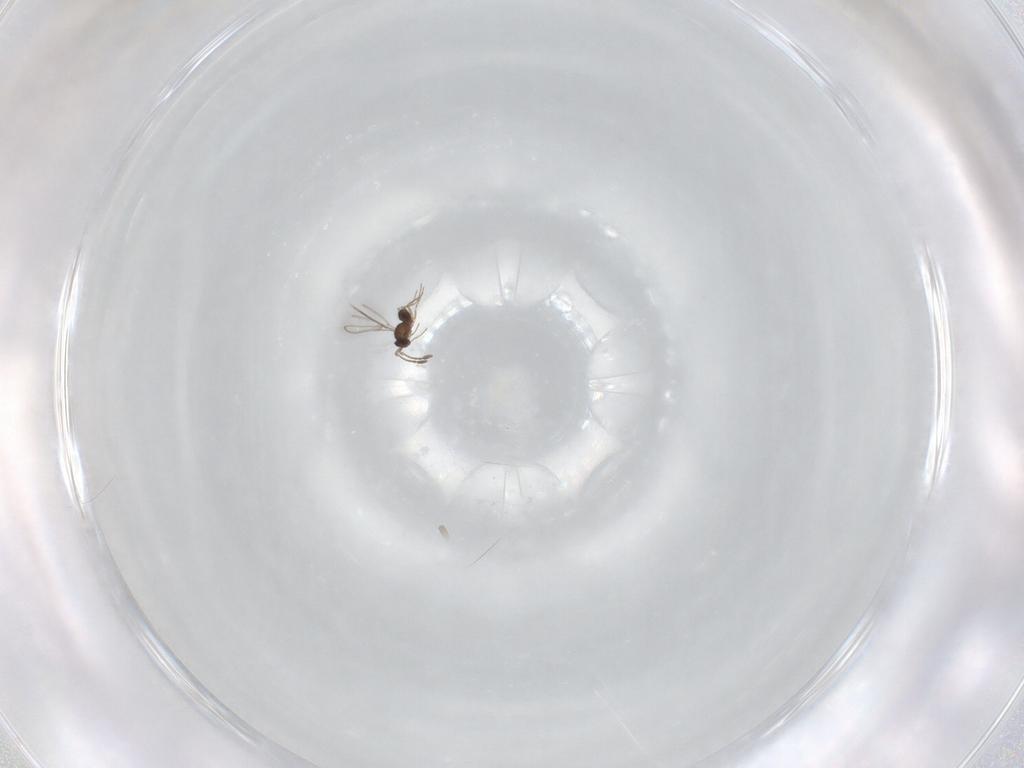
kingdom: Animalia
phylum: Arthropoda
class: Insecta
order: Hymenoptera
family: Mymaridae
